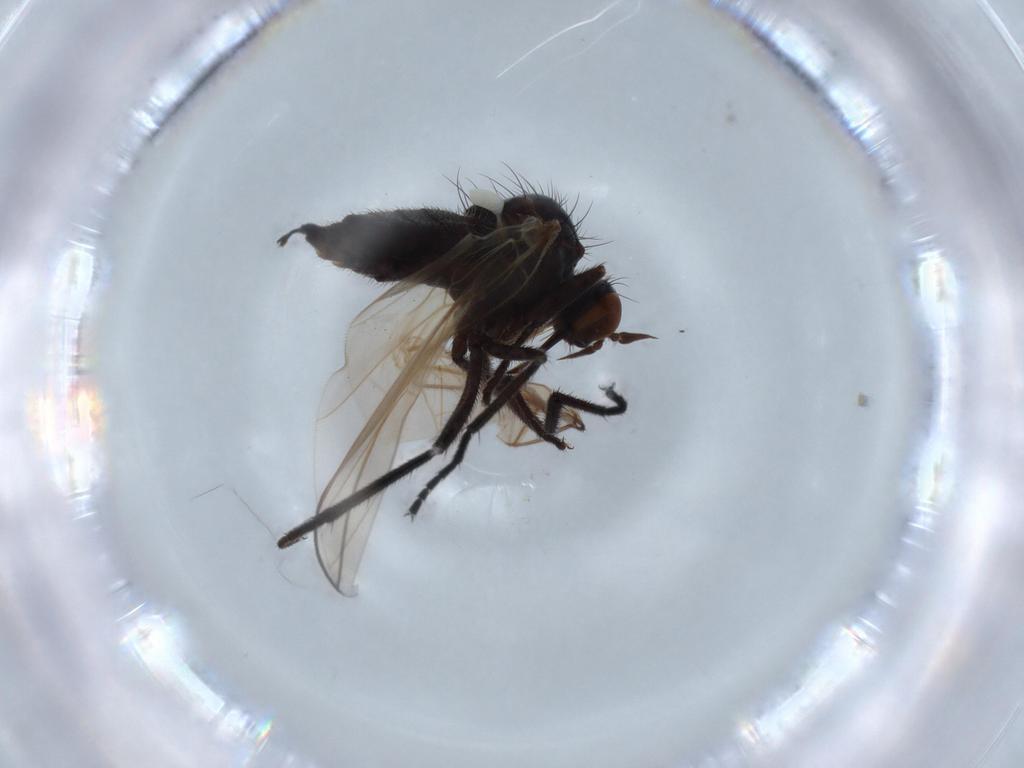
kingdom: Animalia
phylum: Arthropoda
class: Insecta
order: Diptera
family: Empididae
